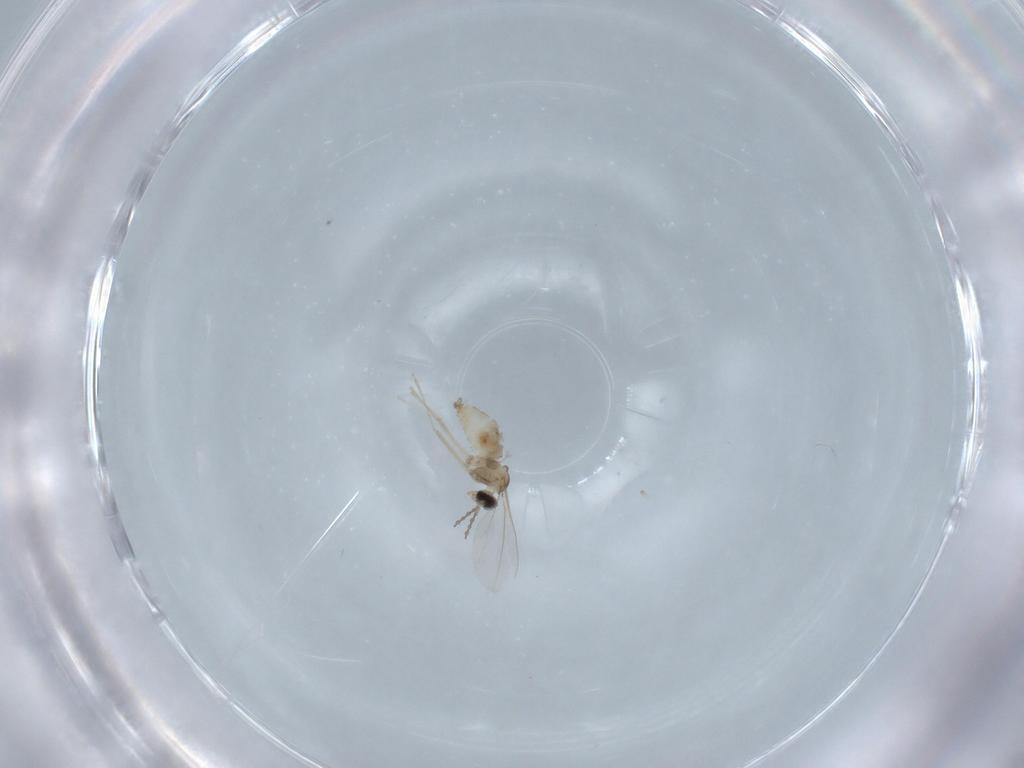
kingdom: Animalia
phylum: Arthropoda
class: Insecta
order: Diptera
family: Cecidomyiidae
